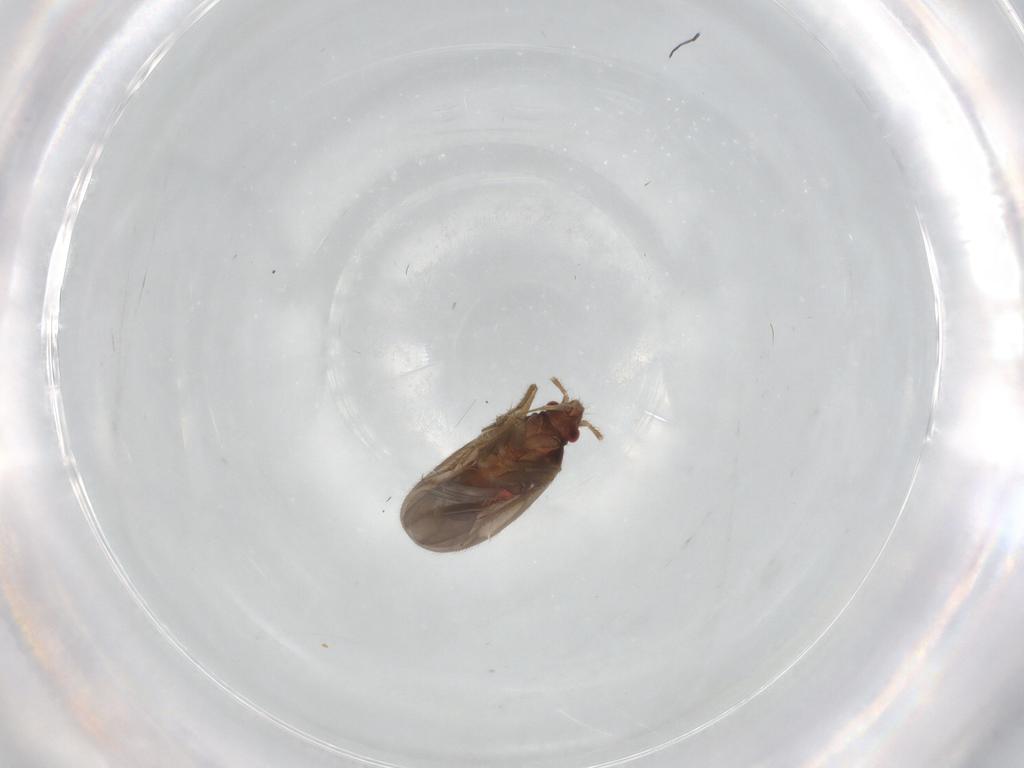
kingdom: Animalia
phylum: Arthropoda
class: Insecta
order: Hemiptera
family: Ceratocombidae
